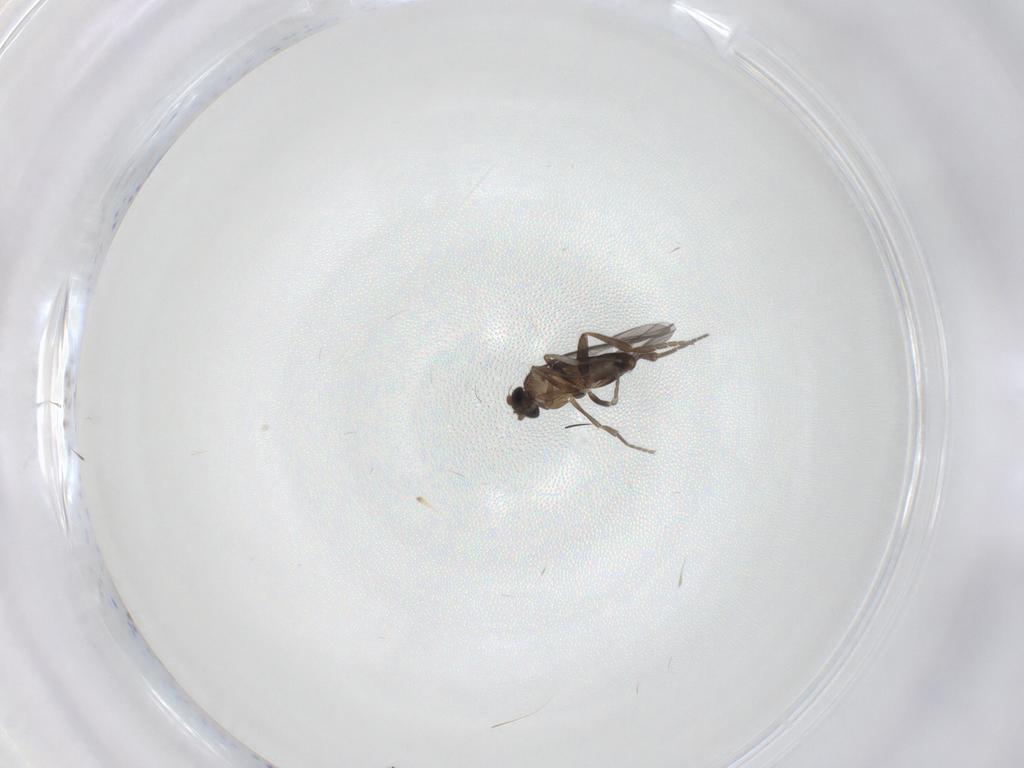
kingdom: Animalia
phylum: Arthropoda
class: Insecta
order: Diptera
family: Phoridae
